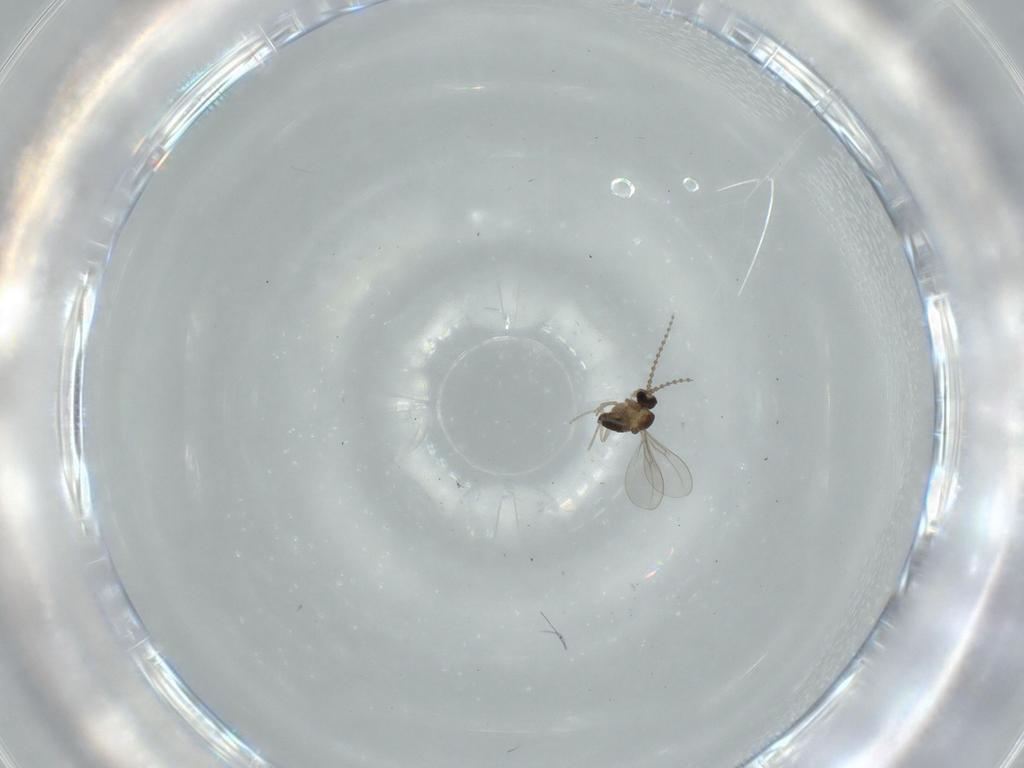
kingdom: Animalia
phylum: Arthropoda
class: Insecta
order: Diptera
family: Cecidomyiidae
